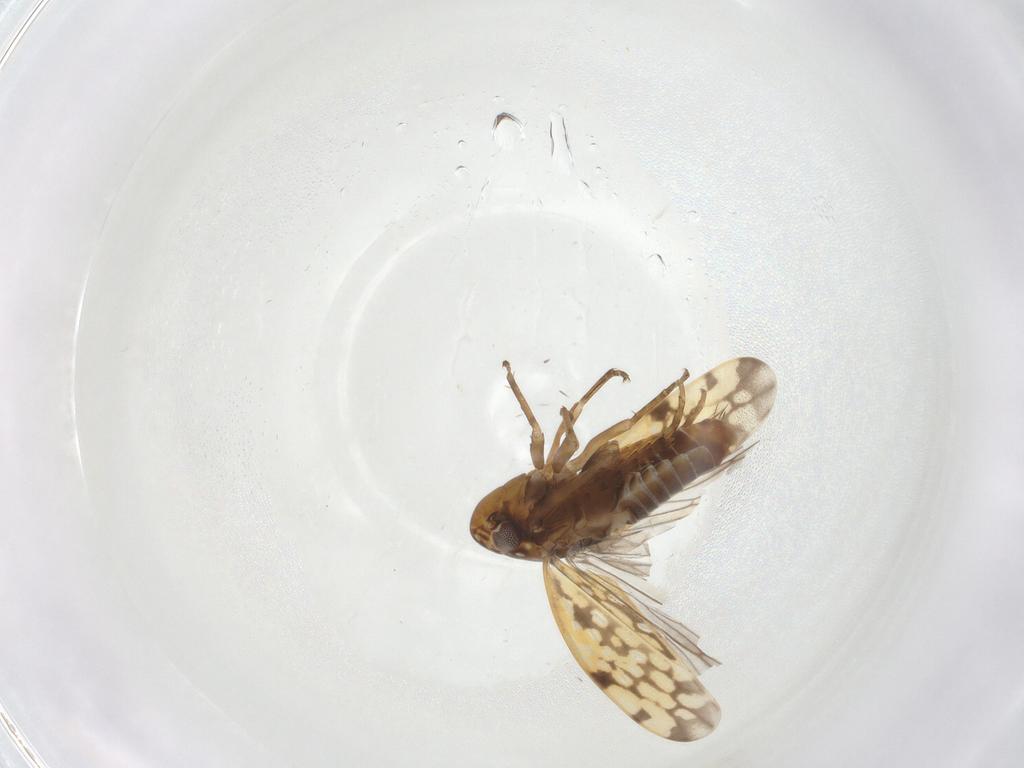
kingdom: Animalia
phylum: Arthropoda
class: Insecta
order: Hemiptera
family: Cicadellidae
